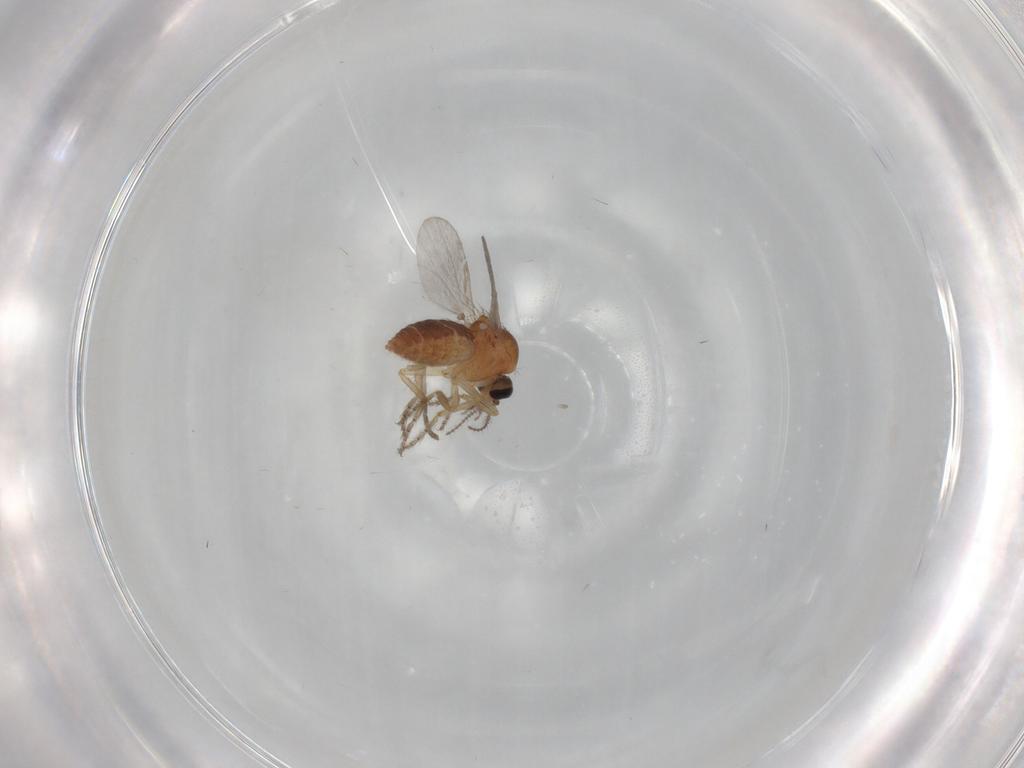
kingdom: Animalia
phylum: Arthropoda
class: Insecta
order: Diptera
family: Ceratopogonidae
